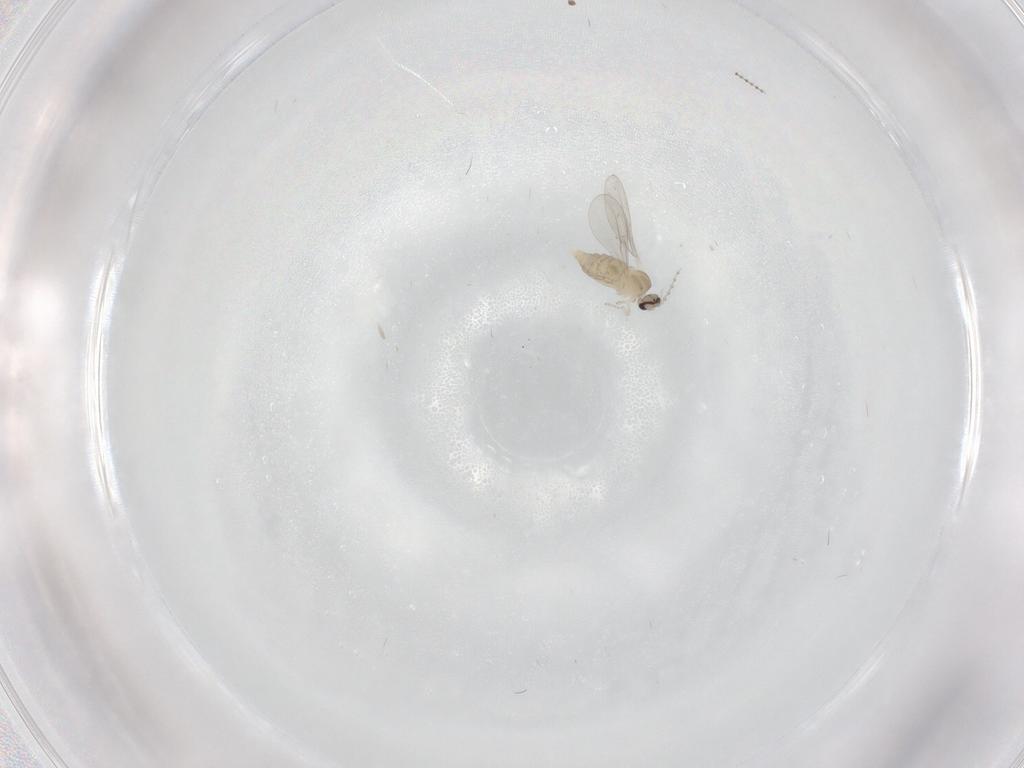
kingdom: Animalia
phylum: Arthropoda
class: Insecta
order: Diptera
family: Cecidomyiidae
